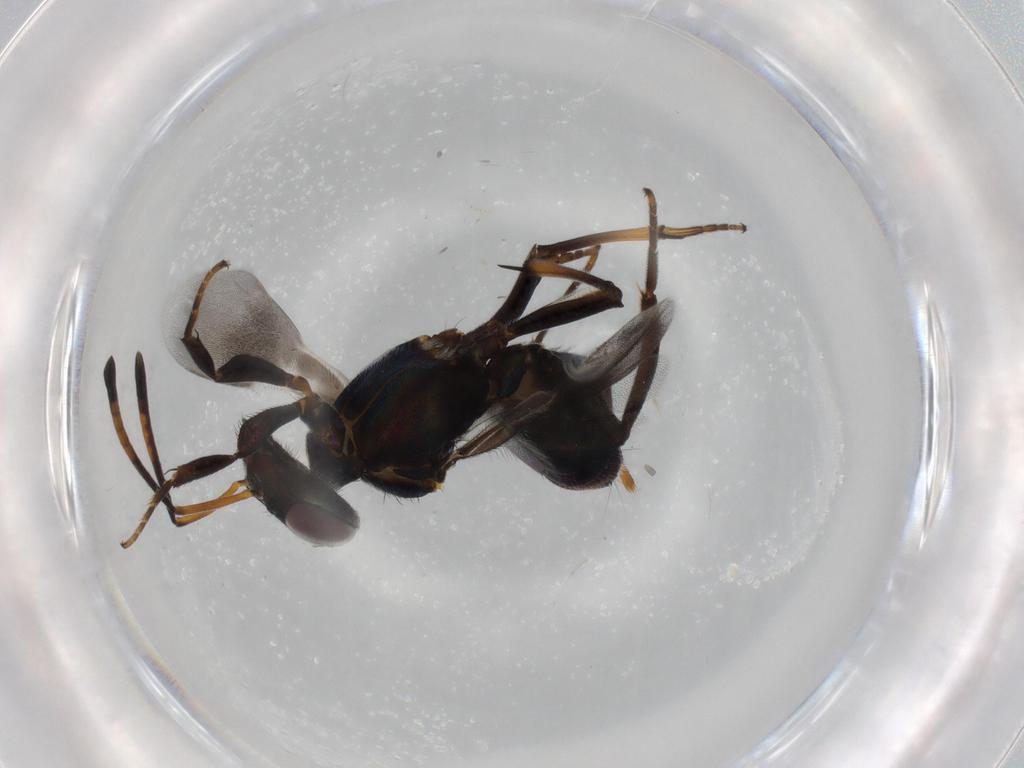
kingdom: Animalia
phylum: Arthropoda
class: Insecta
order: Hymenoptera
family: Eupelmidae
